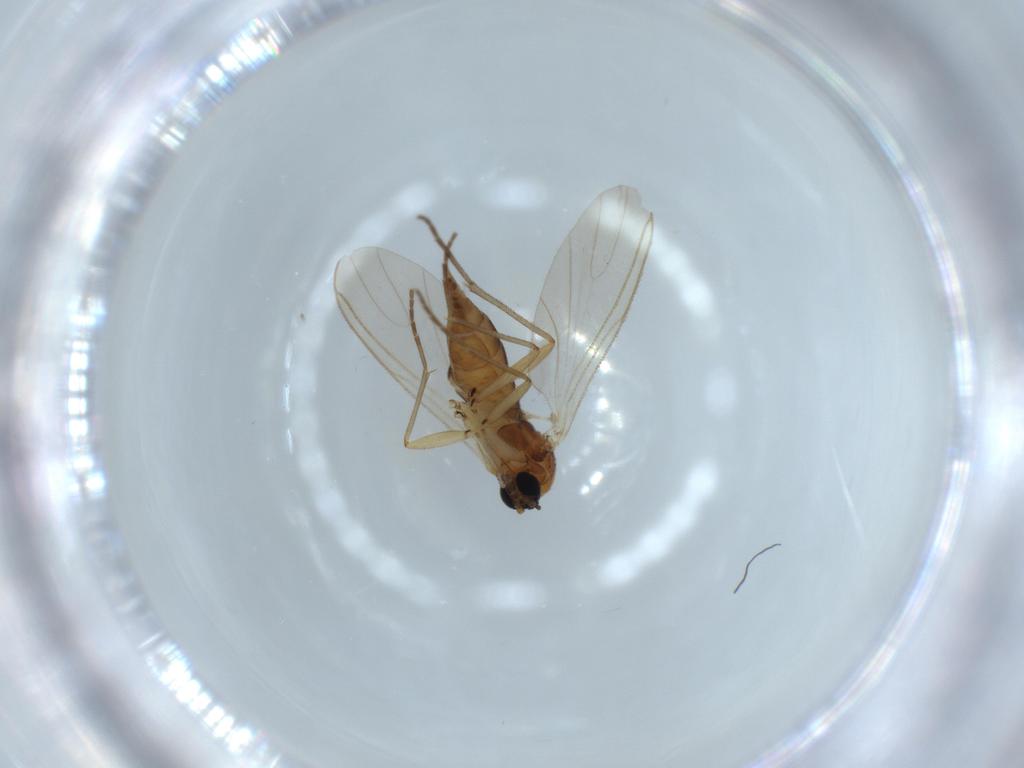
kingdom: Animalia
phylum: Arthropoda
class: Insecta
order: Diptera
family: Sciaridae
